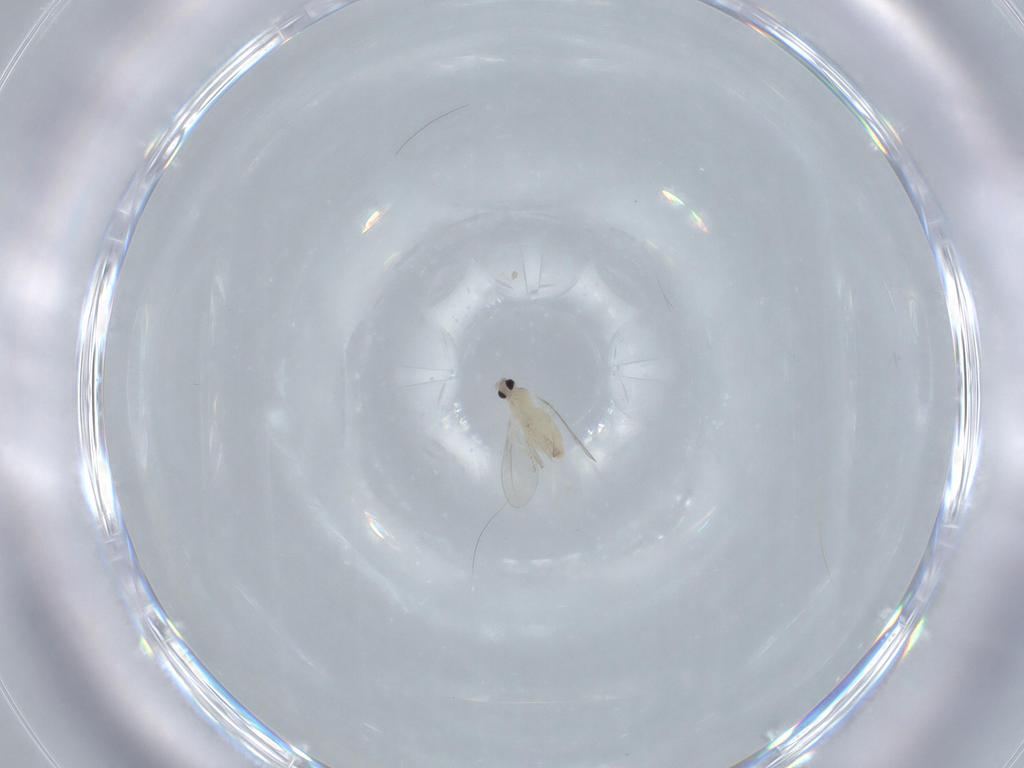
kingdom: Animalia
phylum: Arthropoda
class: Insecta
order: Diptera
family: Cecidomyiidae
